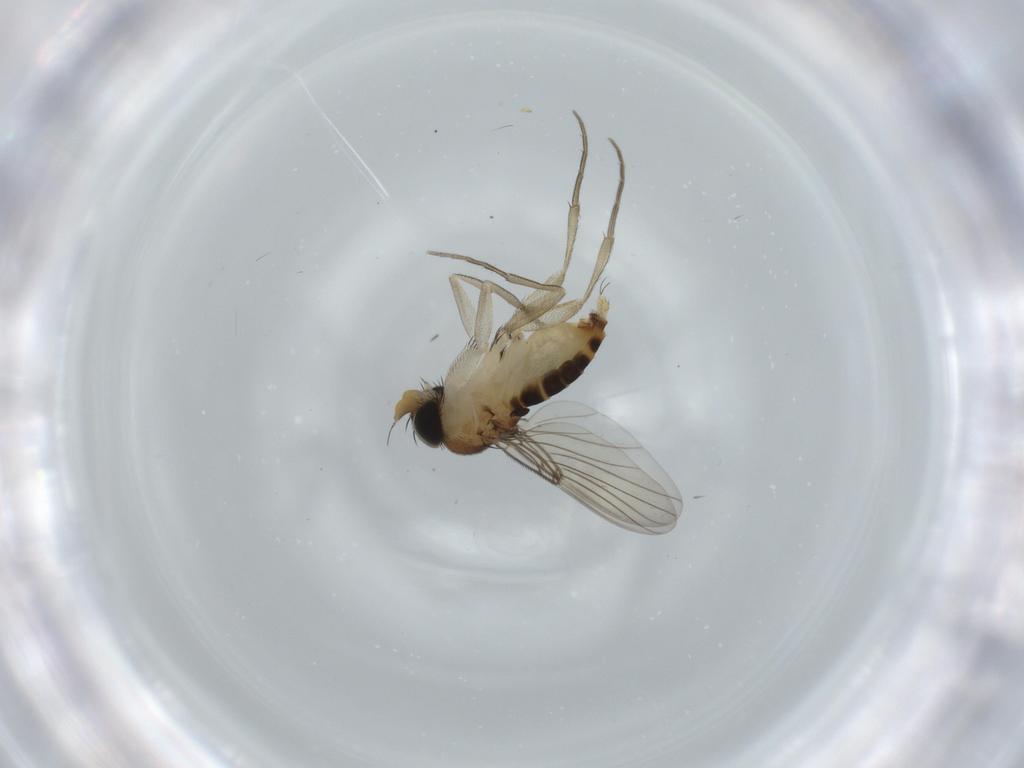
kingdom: Animalia
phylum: Arthropoda
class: Insecta
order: Diptera
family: Phoridae
